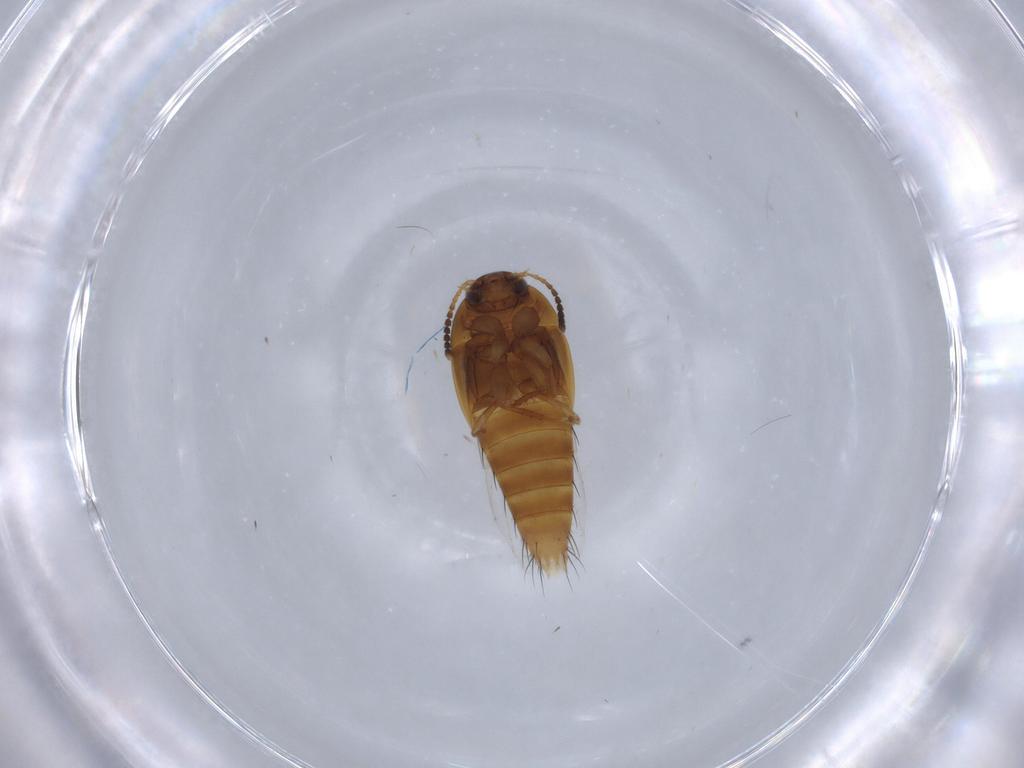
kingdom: Animalia
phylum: Arthropoda
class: Insecta
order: Coleoptera
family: Staphylinidae
